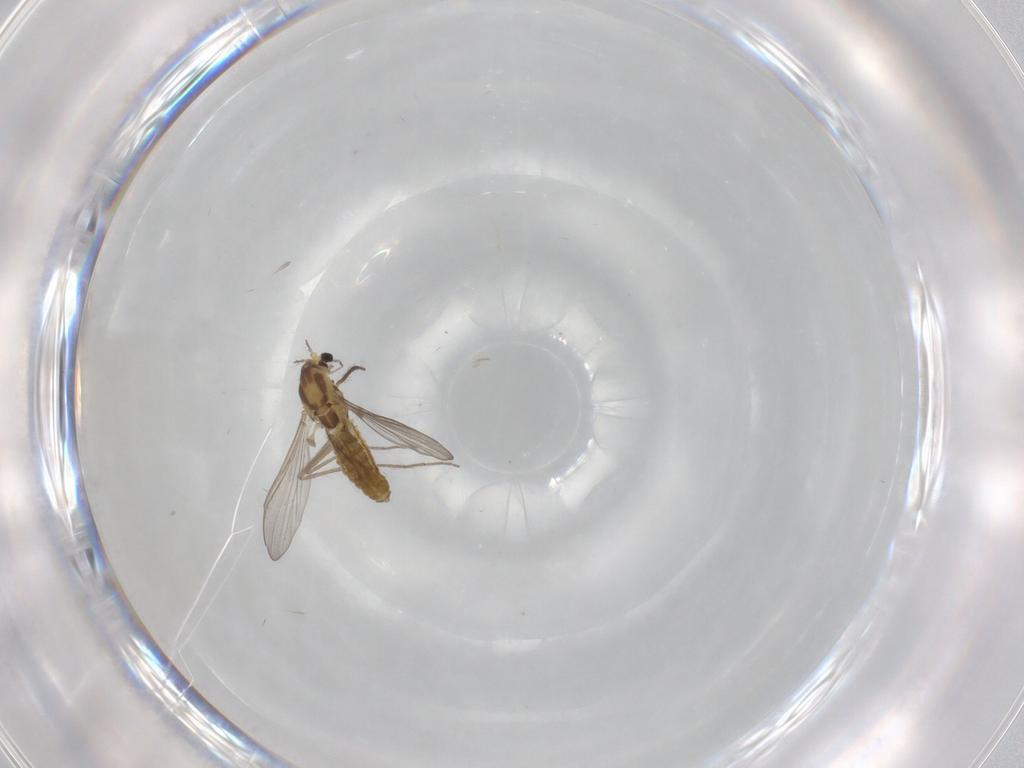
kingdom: Animalia
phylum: Arthropoda
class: Insecta
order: Diptera
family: Chironomidae
